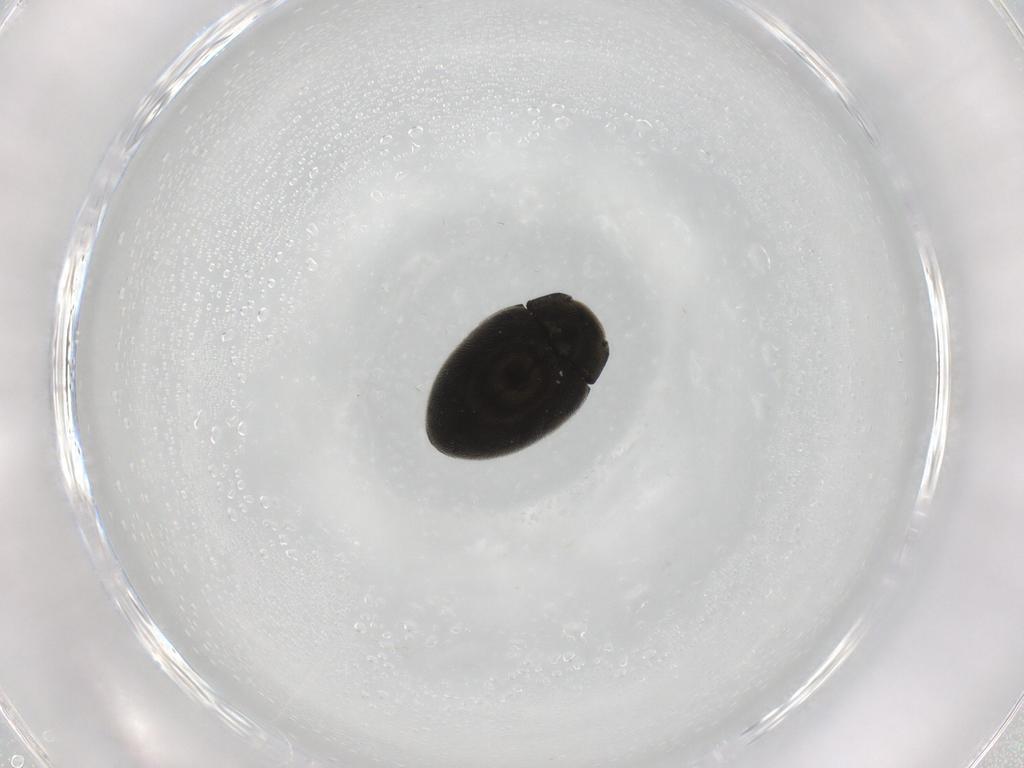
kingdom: Animalia
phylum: Arthropoda
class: Insecta
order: Coleoptera
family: Limnichidae
